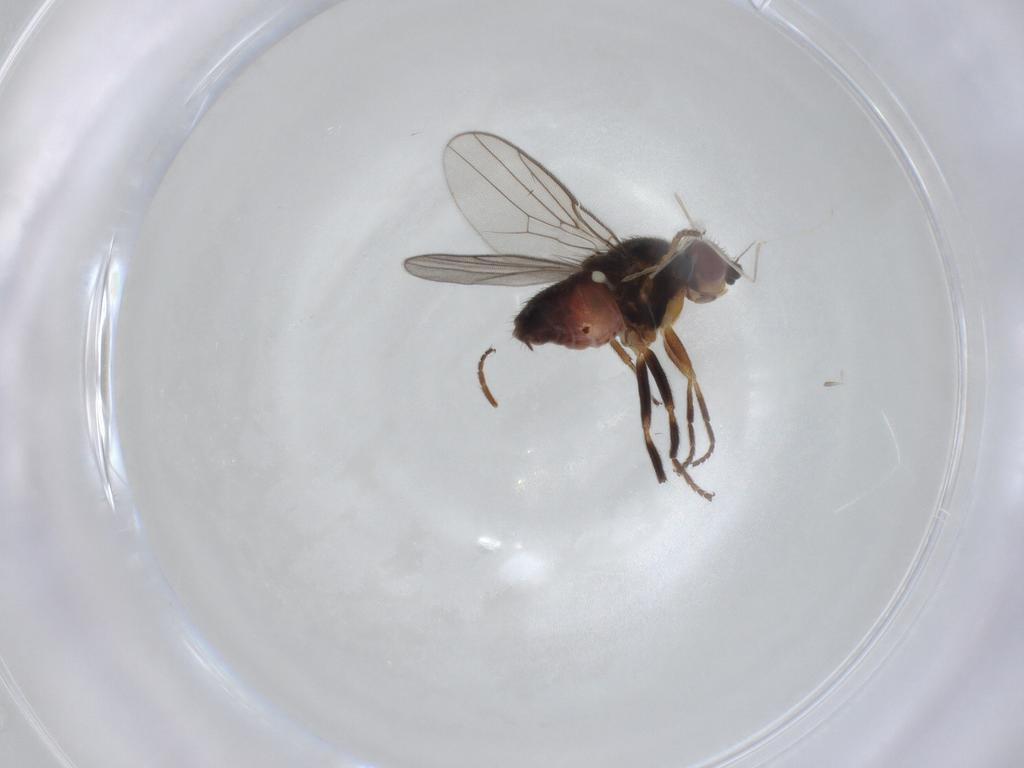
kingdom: Animalia
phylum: Arthropoda
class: Insecta
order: Diptera
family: Chloropidae
